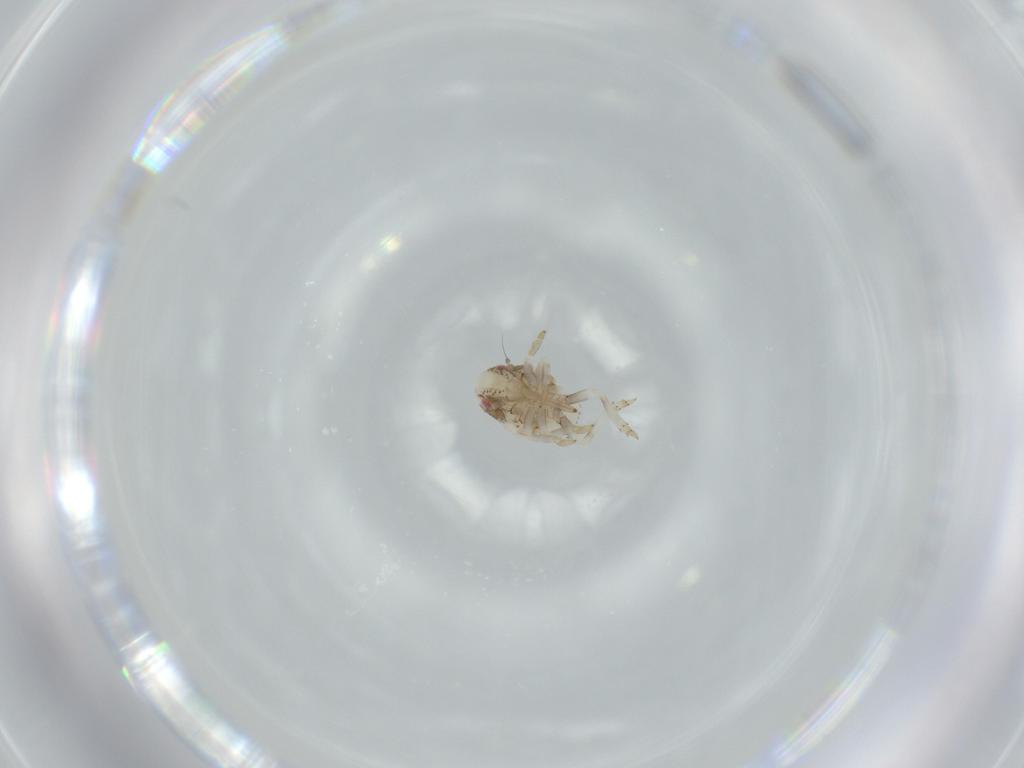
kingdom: Animalia
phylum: Arthropoda
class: Insecta
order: Hemiptera
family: Acanaloniidae
